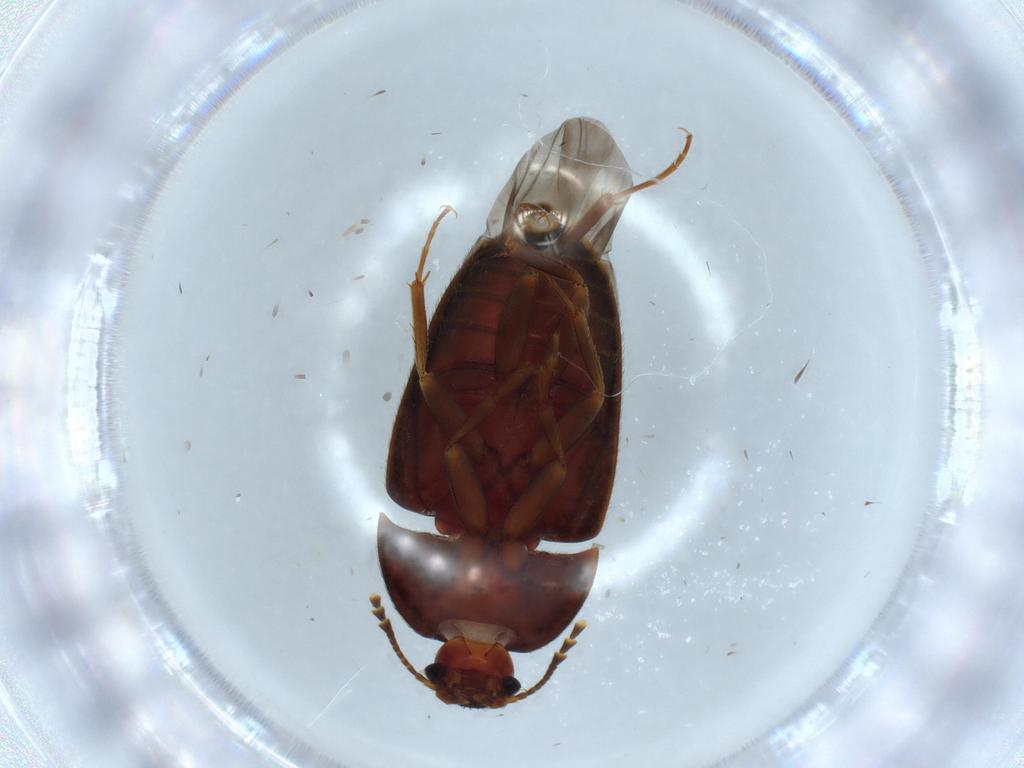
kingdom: Animalia
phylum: Arthropoda
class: Insecta
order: Coleoptera
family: Mycetophagidae
